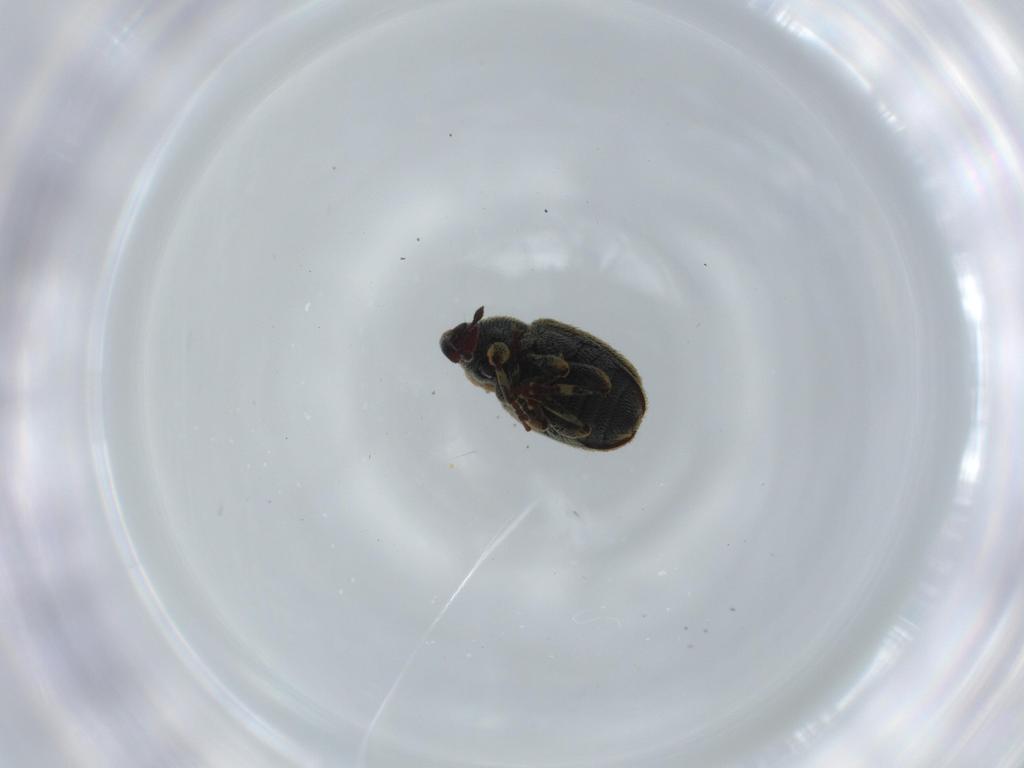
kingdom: Animalia
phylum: Arthropoda
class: Insecta
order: Coleoptera
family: Curculionidae
